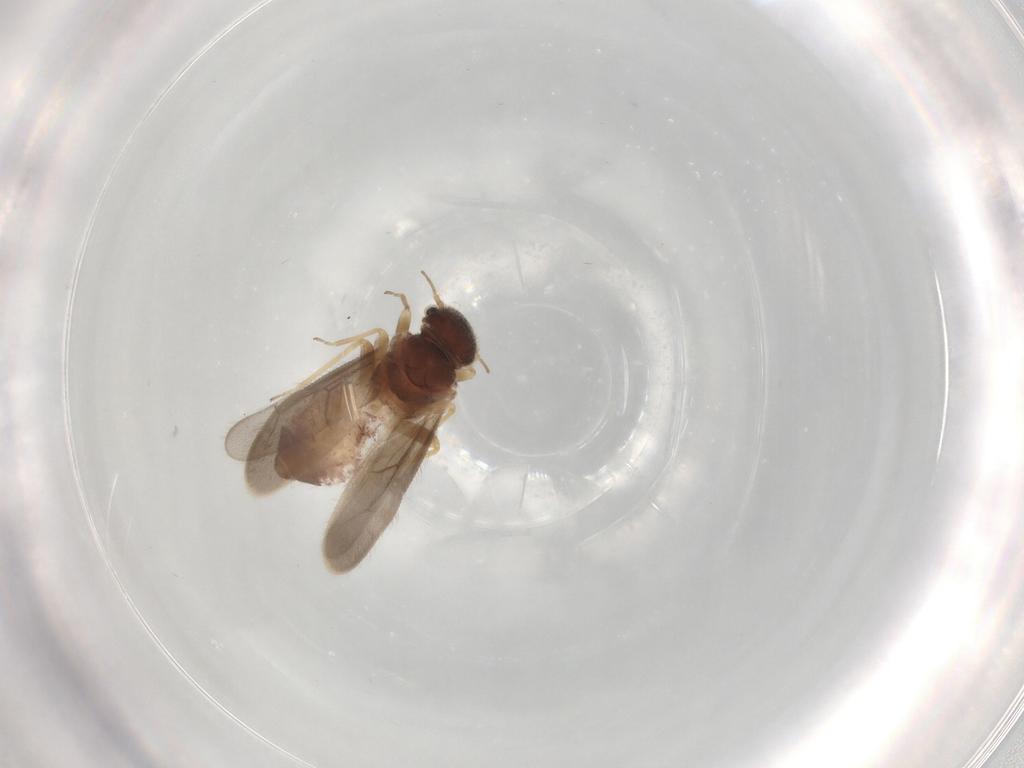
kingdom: Animalia
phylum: Arthropoda
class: Insecta
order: Psocodea
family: Archipsocidae
